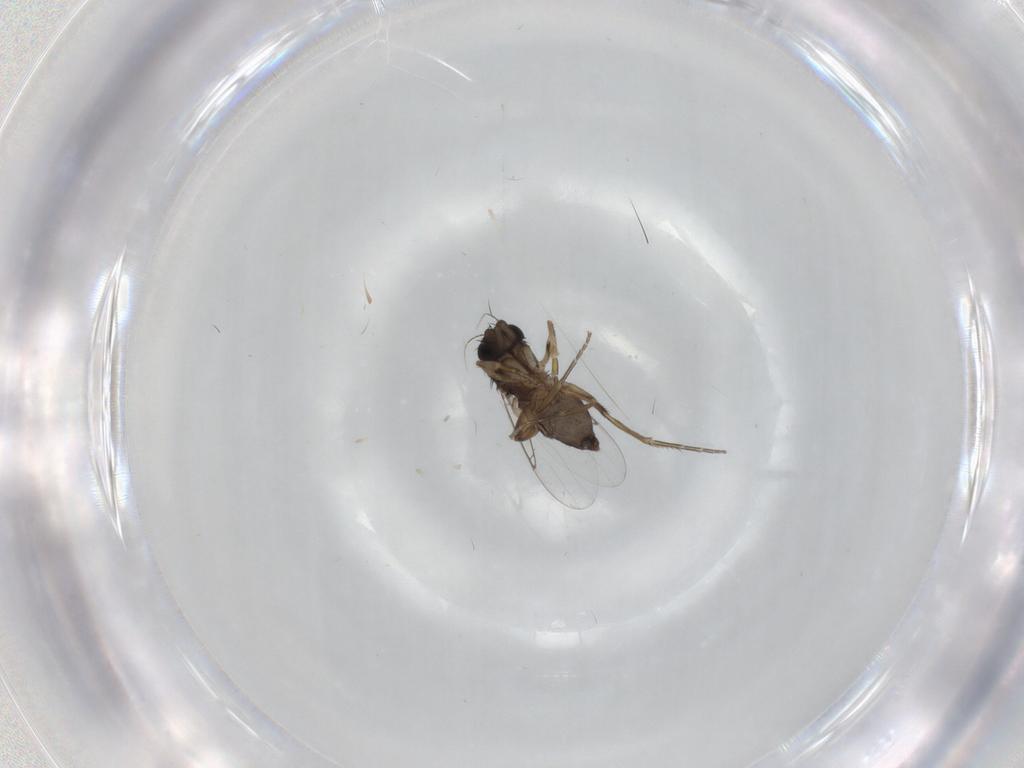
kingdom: Animalia
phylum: Arthropoda
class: Insecta
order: Diptera
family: Phoridae
